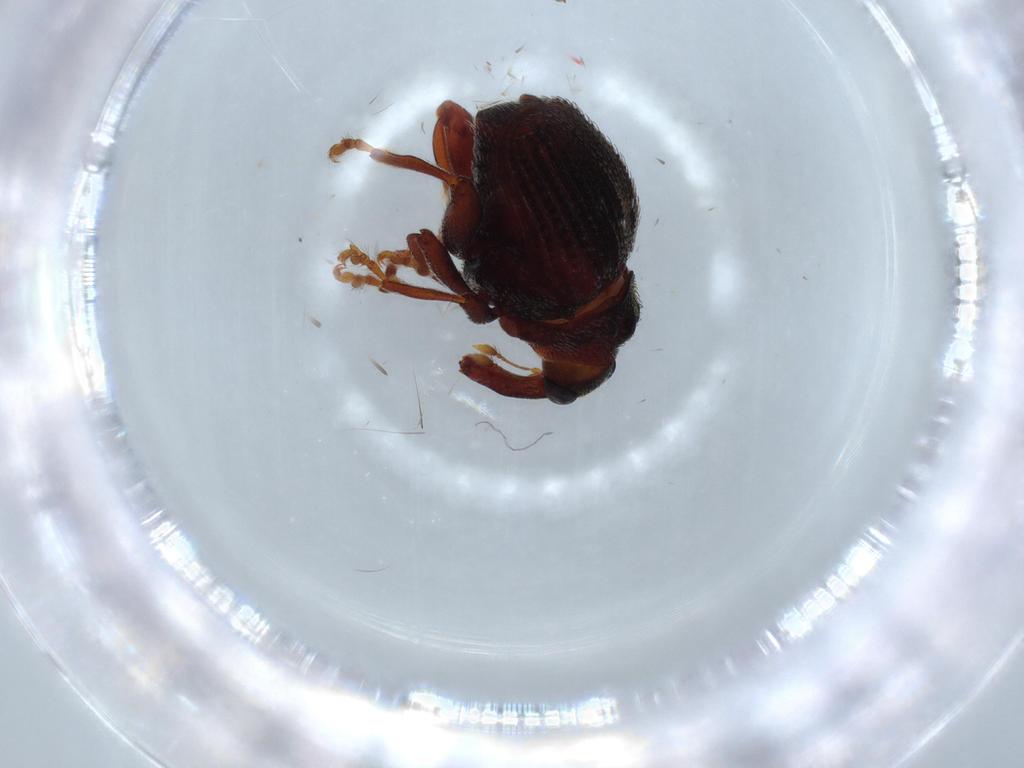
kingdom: Animalia
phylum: Arthropoda
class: Insecta
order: Coleoptera
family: Curculionidae
